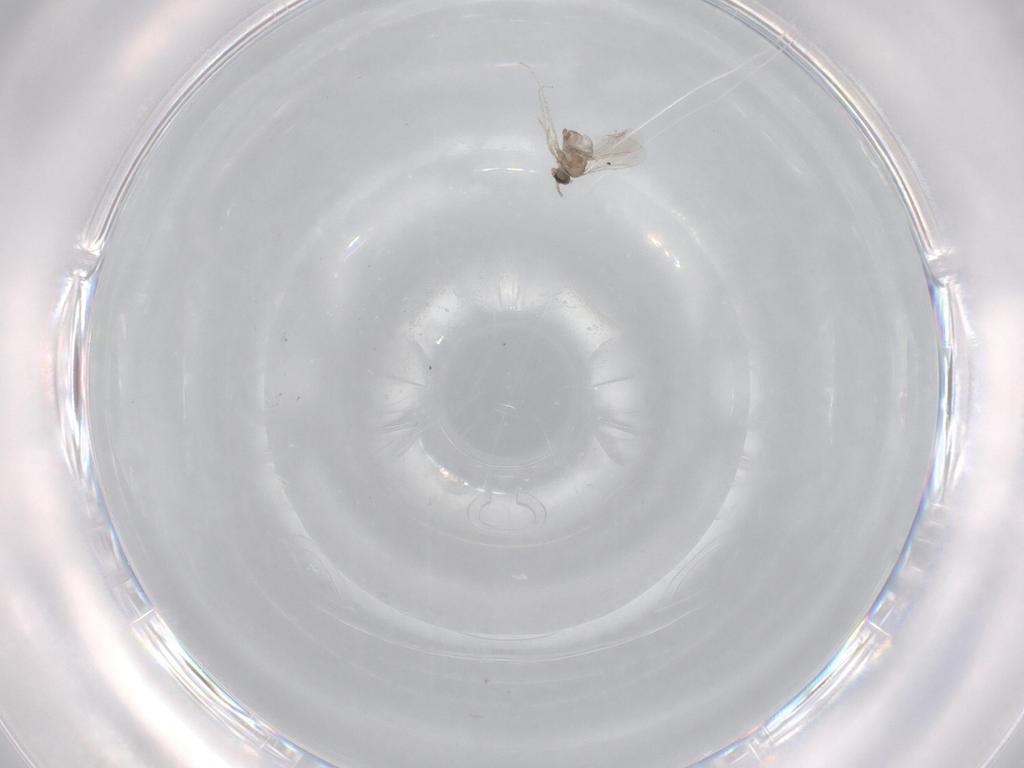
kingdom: Animalia
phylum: Arthropoda
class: Insecta
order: Diptera
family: Cecidomyiidae
